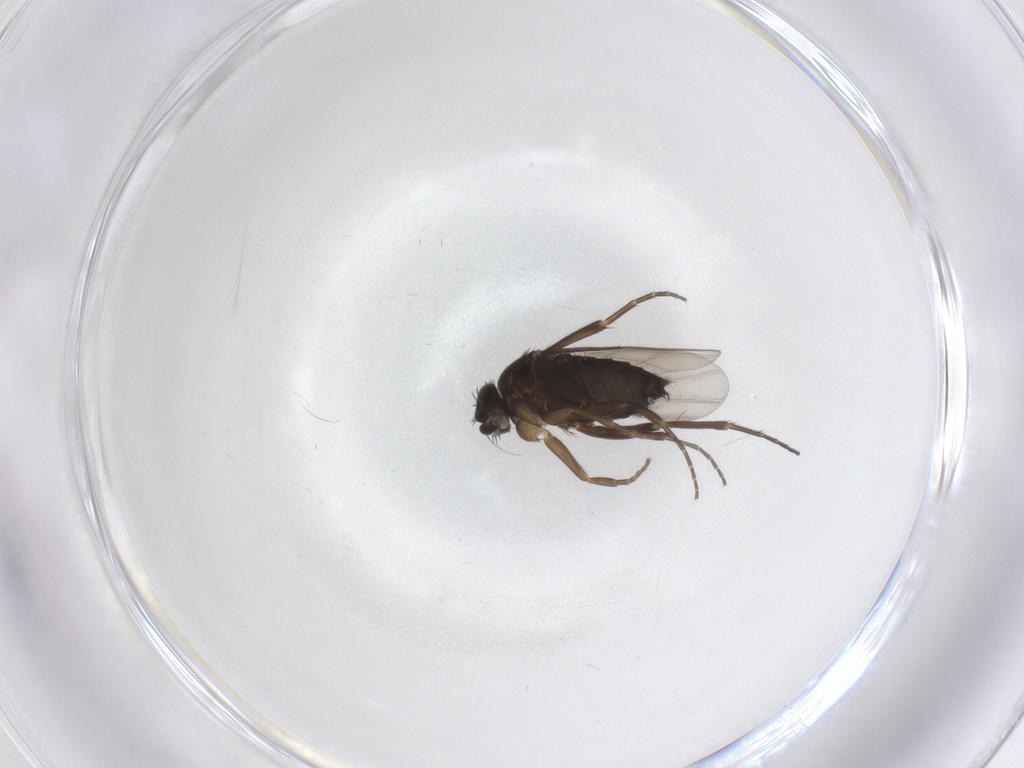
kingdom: Animalia
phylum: Arthropoda
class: Insecta
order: Diptera
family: Phoridae
